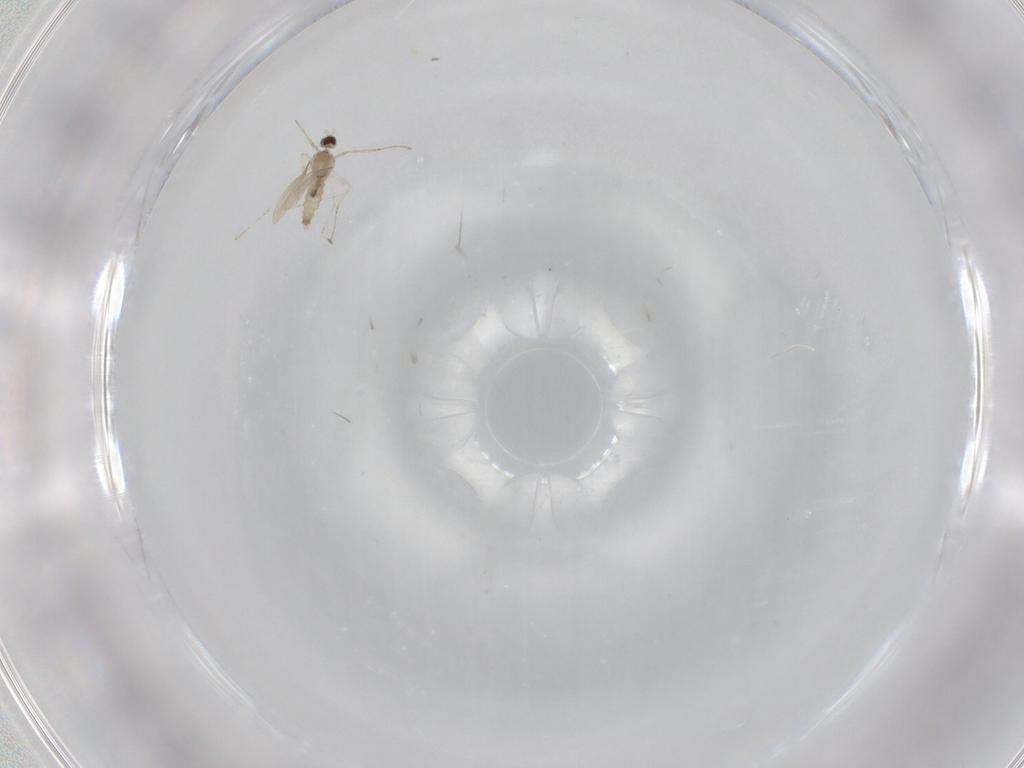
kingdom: Animalia
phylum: Arthropoda
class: Insecta
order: Diptera
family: Cecidomyiidae
